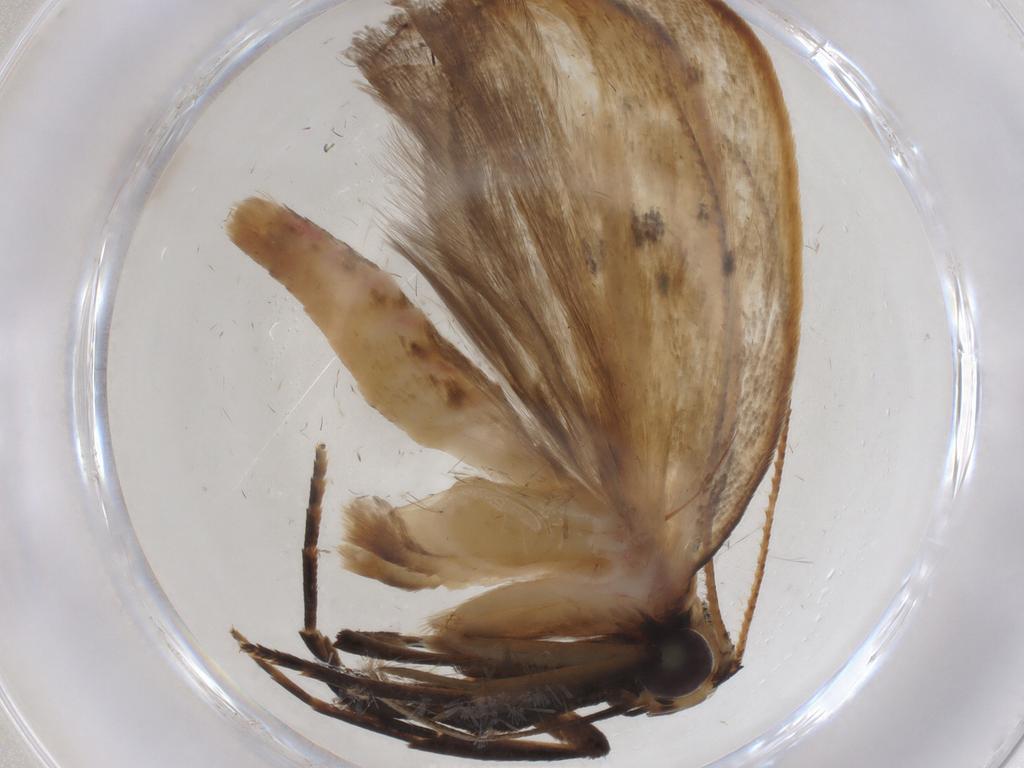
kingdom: Animalia
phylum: Arthropoda
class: Insecta
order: Lepidoptera
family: Gelechiidae
